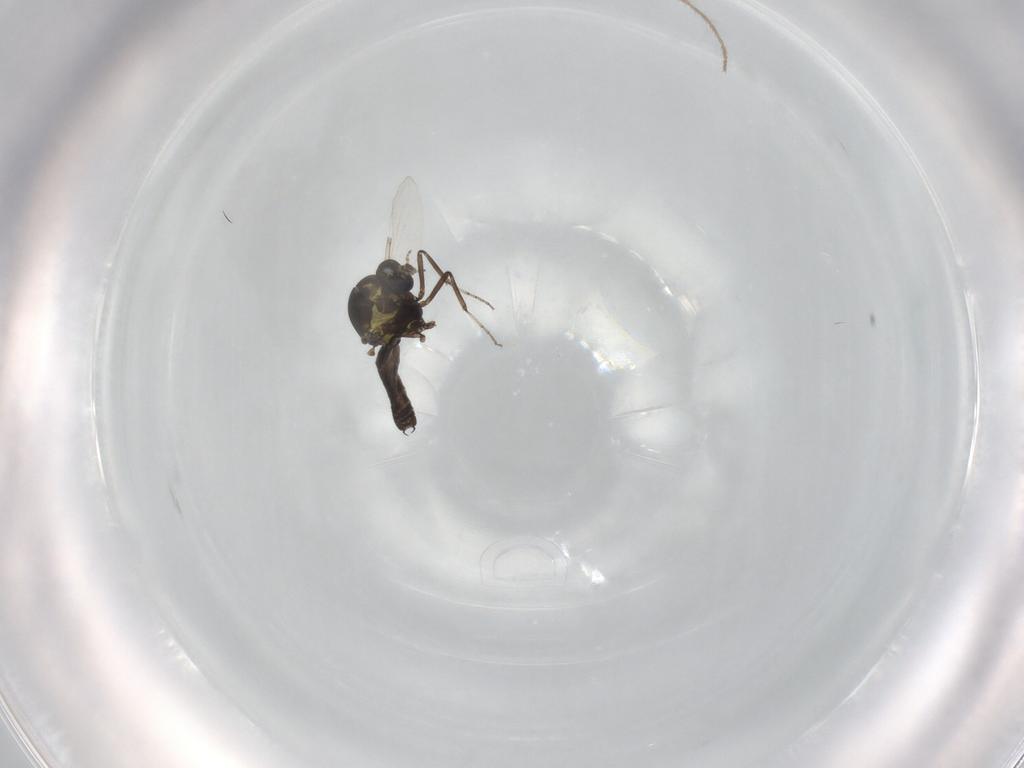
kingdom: Animalia
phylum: Arthropoda
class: Insecta
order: Diptera
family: Ceratopogonidae
